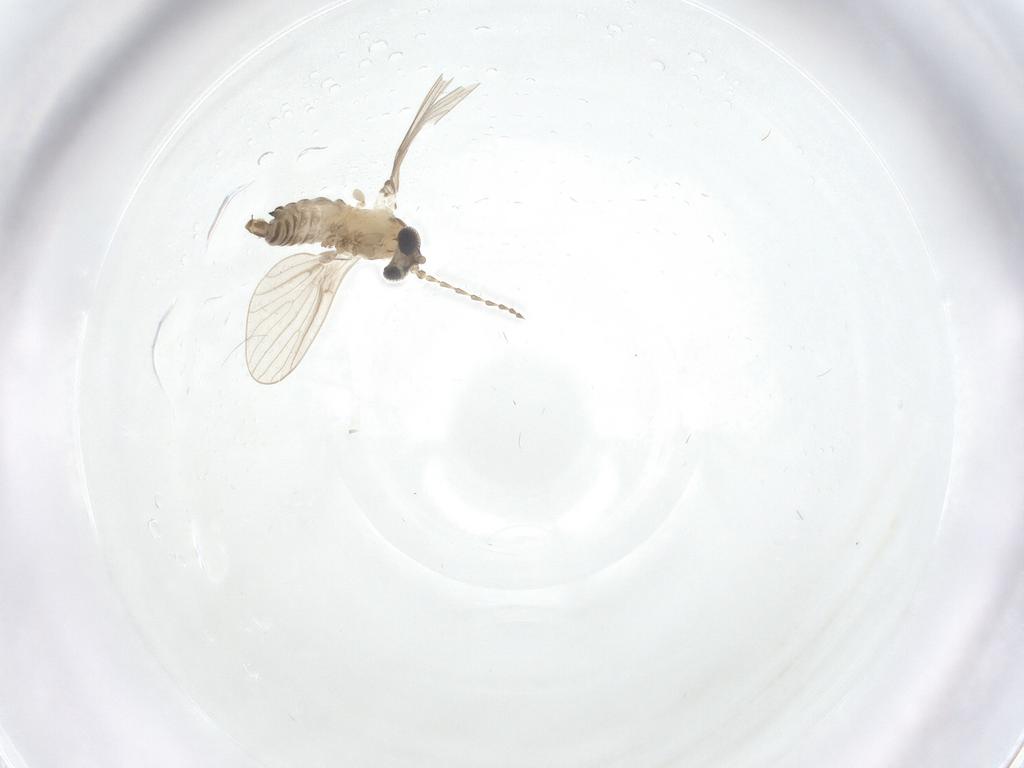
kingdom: Animalia
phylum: Arthropoda
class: Insecta
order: Diptera
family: Psychodidae
